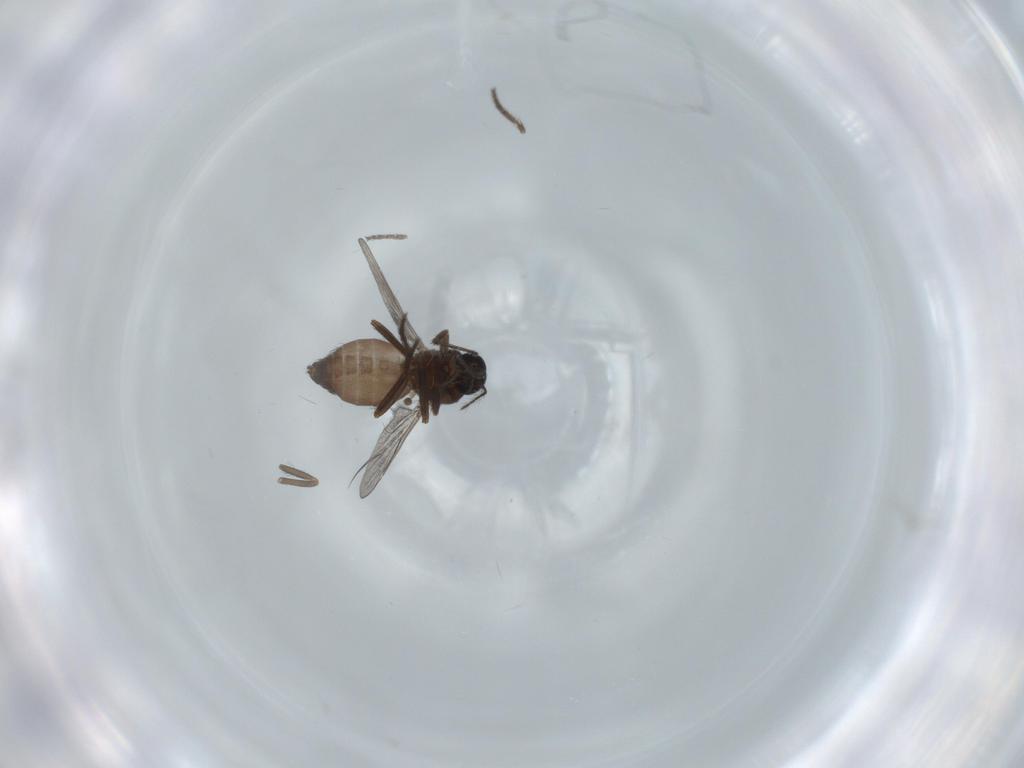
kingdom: Animalia
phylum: Arthropoda
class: Insecta
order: Diptera
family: Ceratopogonidae
